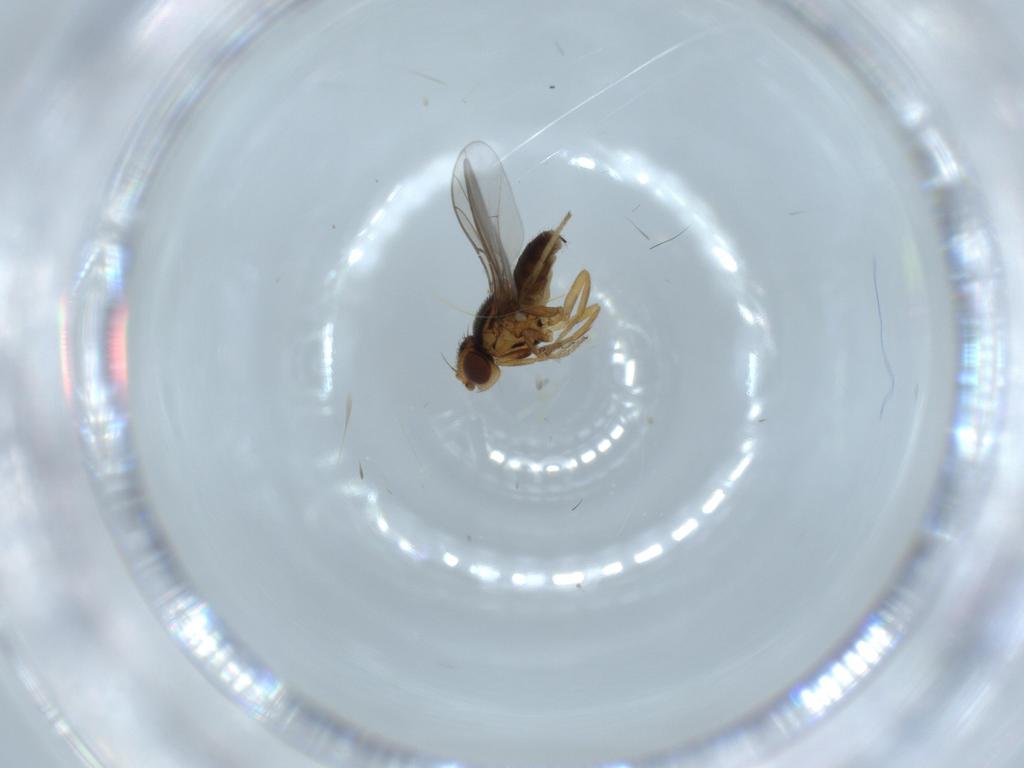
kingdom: Animalia
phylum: Arthropoda
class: Insecta
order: Diptera
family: Chloropidae
